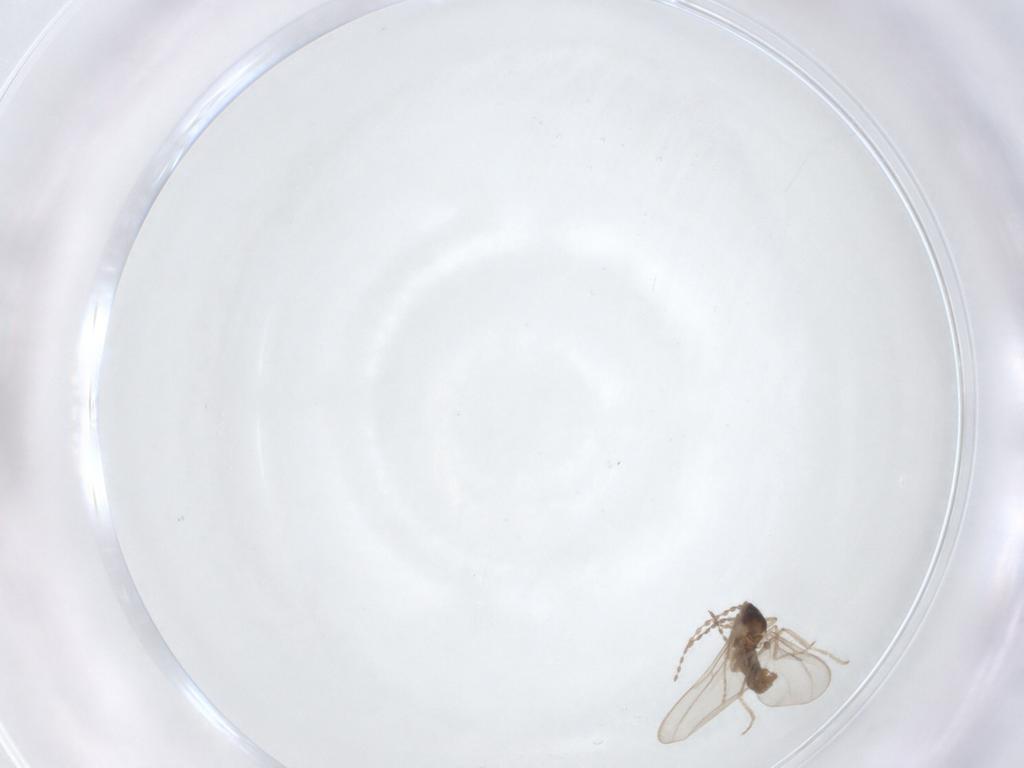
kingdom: Animalia
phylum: Arthropoda
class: Insecta
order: Diptera
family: Cecidomyiidae
